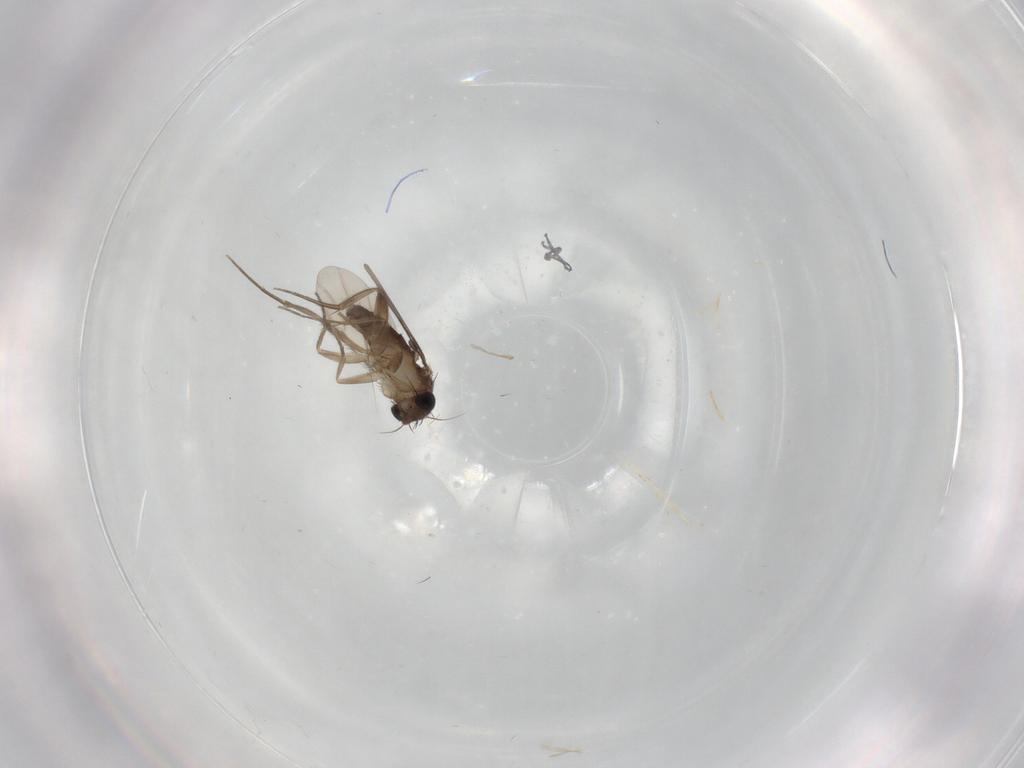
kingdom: Animalia
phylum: Arthropoda
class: Insecta
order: Diptera
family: Phoridae
